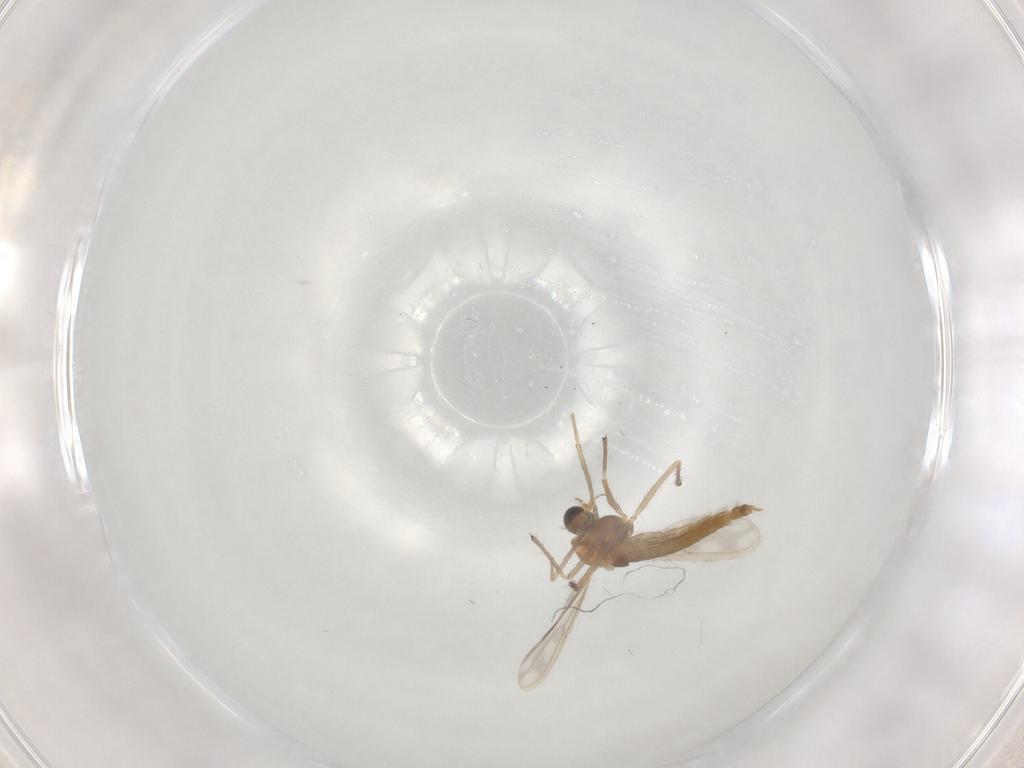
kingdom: Animalia
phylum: Arthropoda
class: Insecta
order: Diptera
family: Chironomidae
